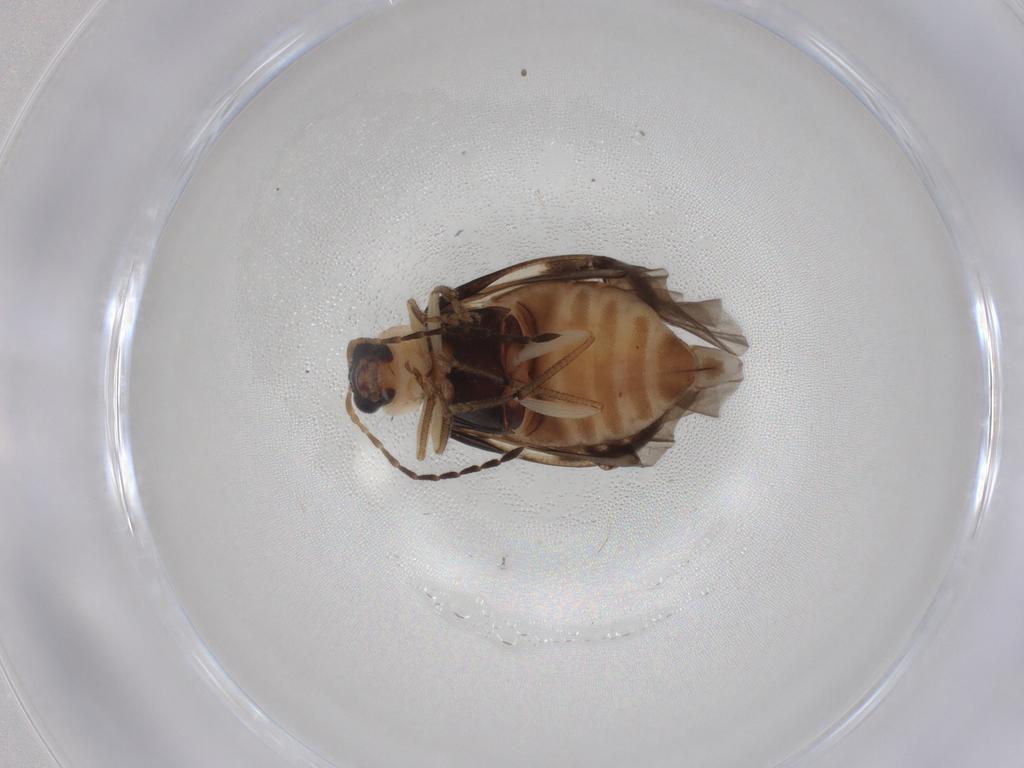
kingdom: Animalia
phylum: Arthropoda
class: Insecta
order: Coleoptera
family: Chrysomelidae
